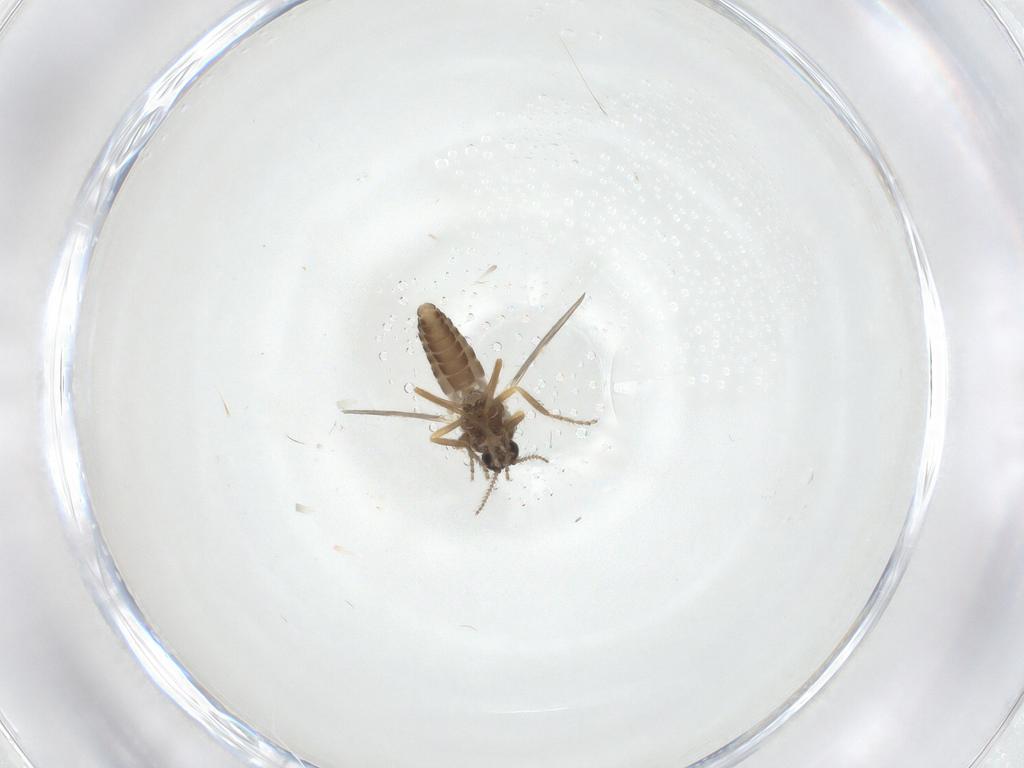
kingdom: Animalia
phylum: Arthropoda
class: Insecta
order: Diptera
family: Ceratopogonidae
